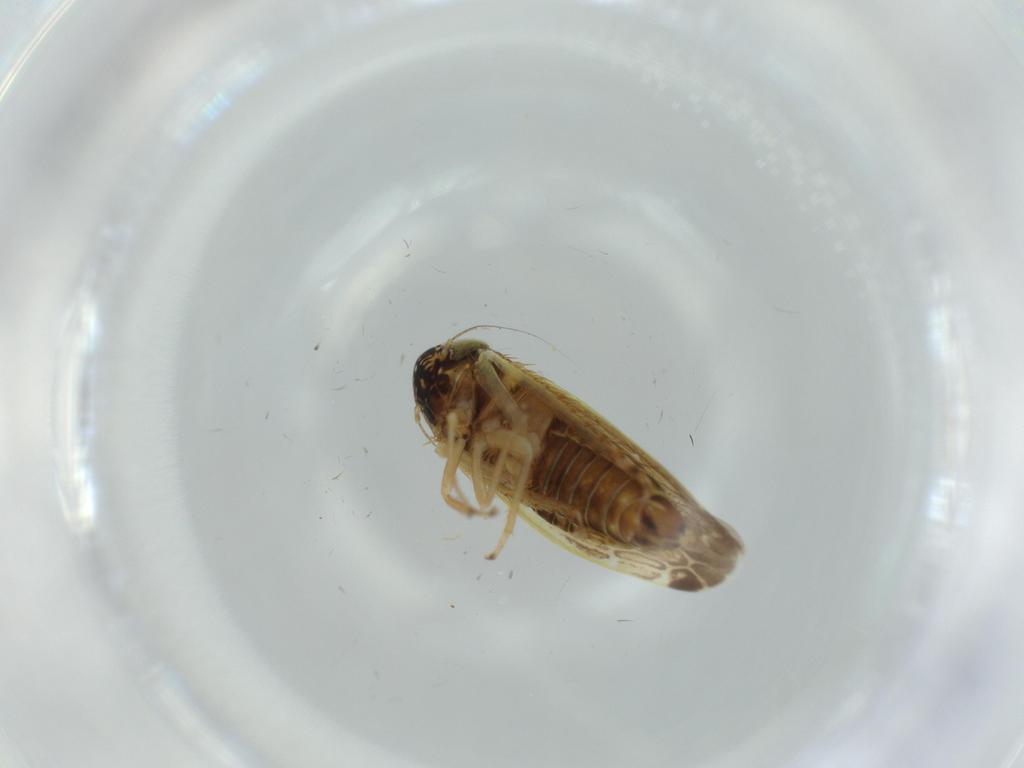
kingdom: Animalia
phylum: Arthropoda
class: Insecta
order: Hemiptera
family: Cicadellidae
